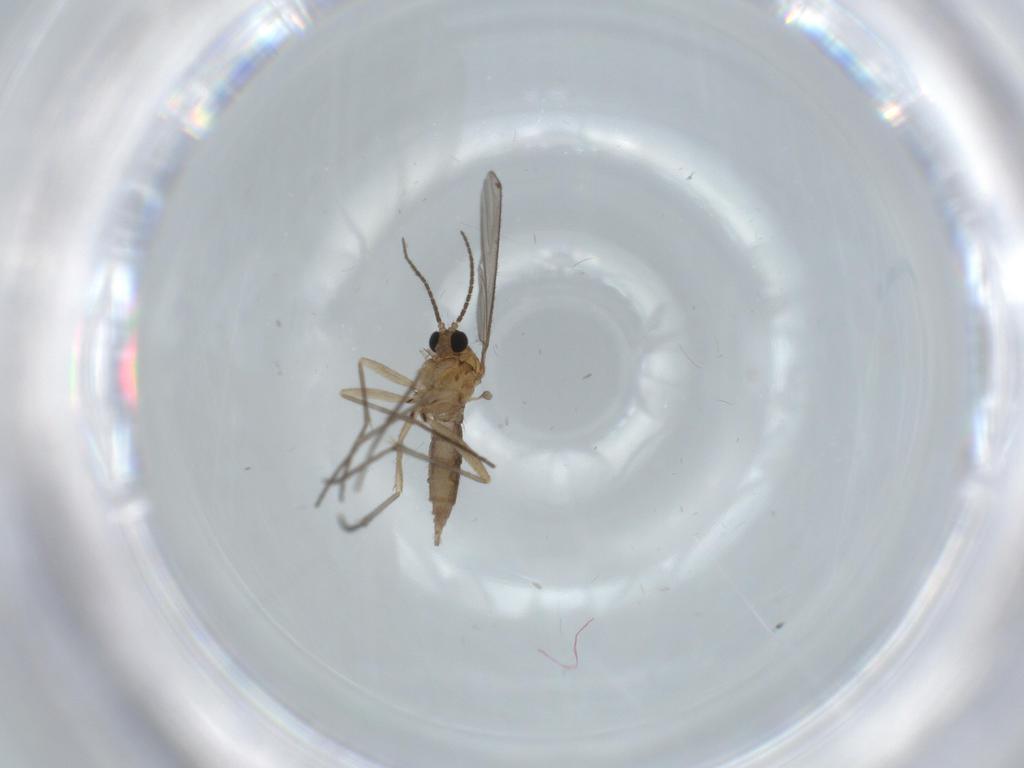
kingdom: Animalia
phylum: Arthropoda
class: Insecta
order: Diptera
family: Sciaridae
